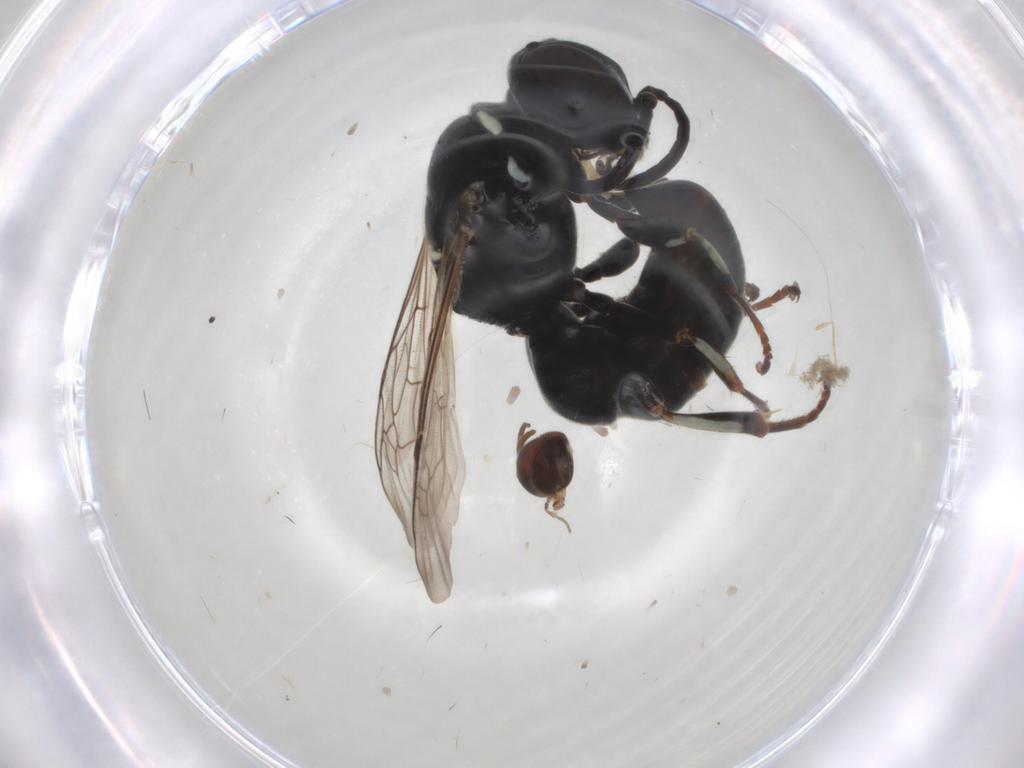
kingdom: Animalia
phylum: Arthropoda
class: Insecta
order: Hymenoptera
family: Crabronidae
